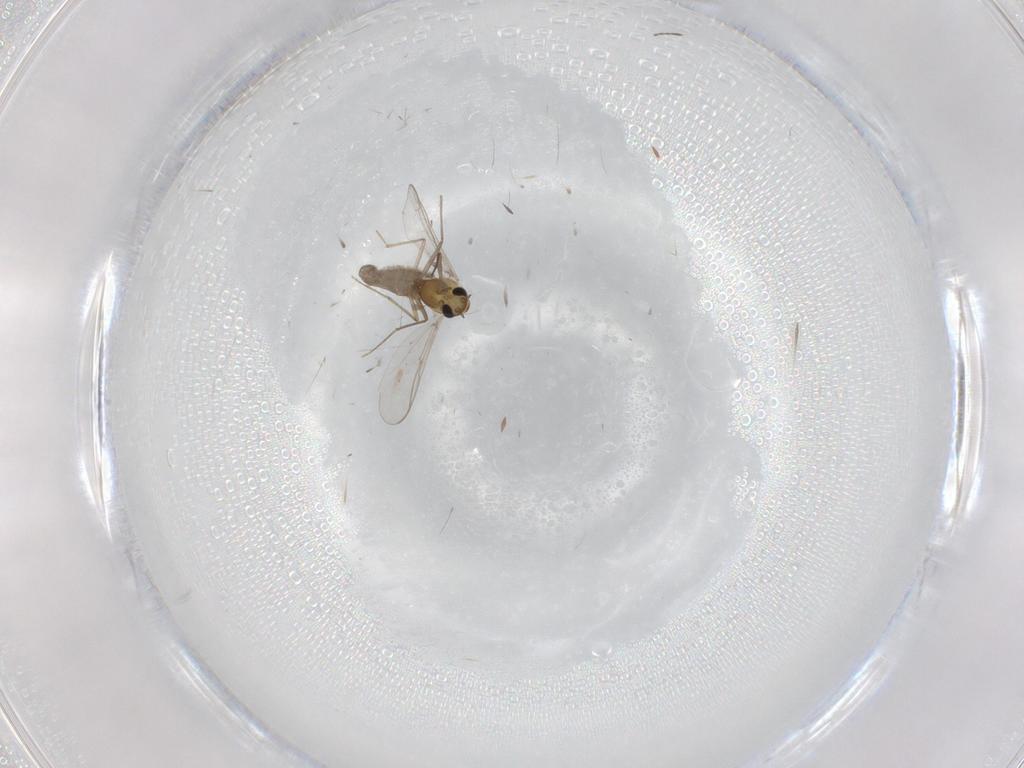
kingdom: Animalia
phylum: Arthropoda
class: Insecta
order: Diptera
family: Chironomidae
